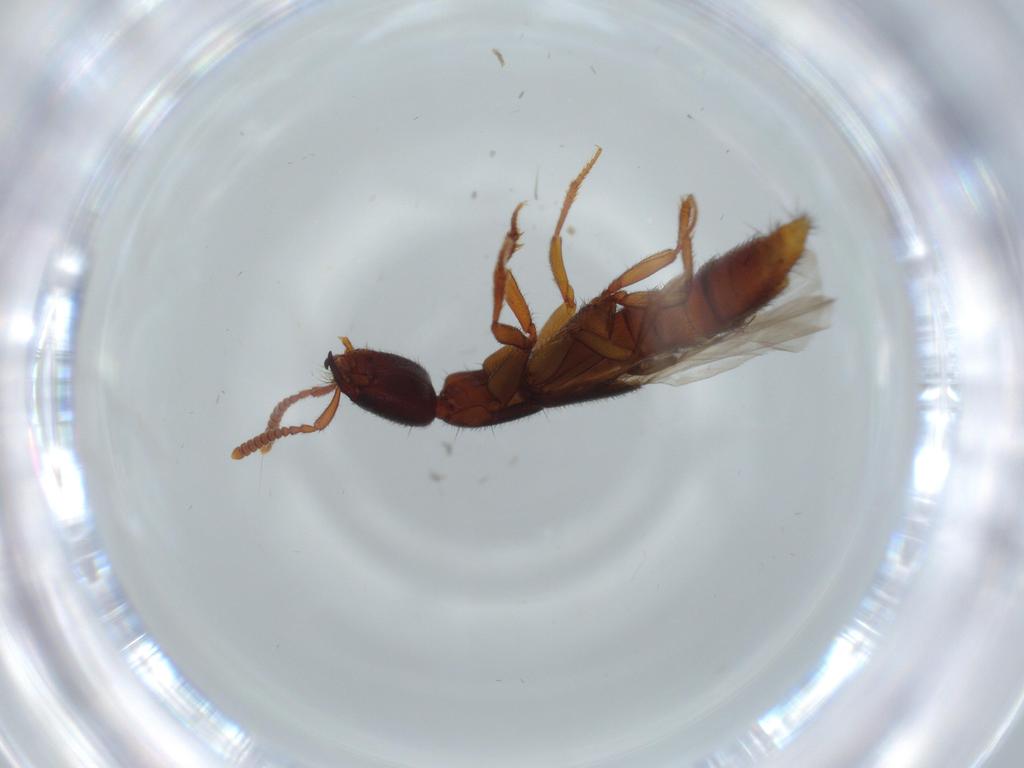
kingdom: Animalia
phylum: Arthropoda
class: Insecta
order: Coleoptera
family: Staphylinidae
